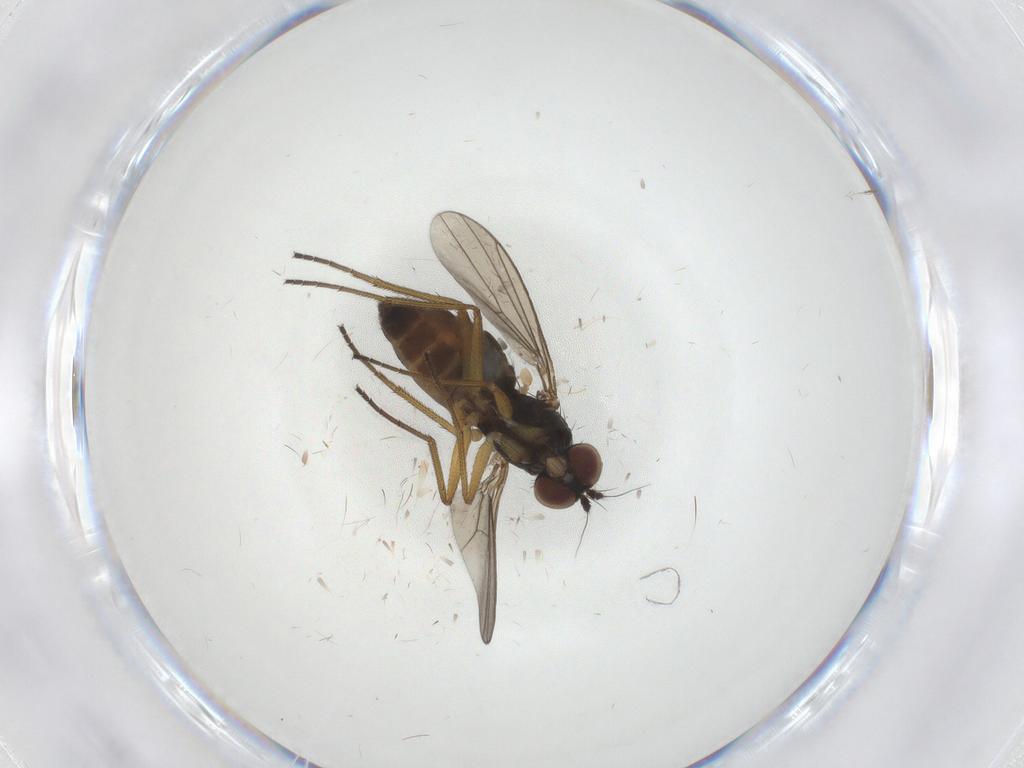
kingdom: Animalia
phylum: Arthropoda
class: Insecta
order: Diptera
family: Dolichopodidae
